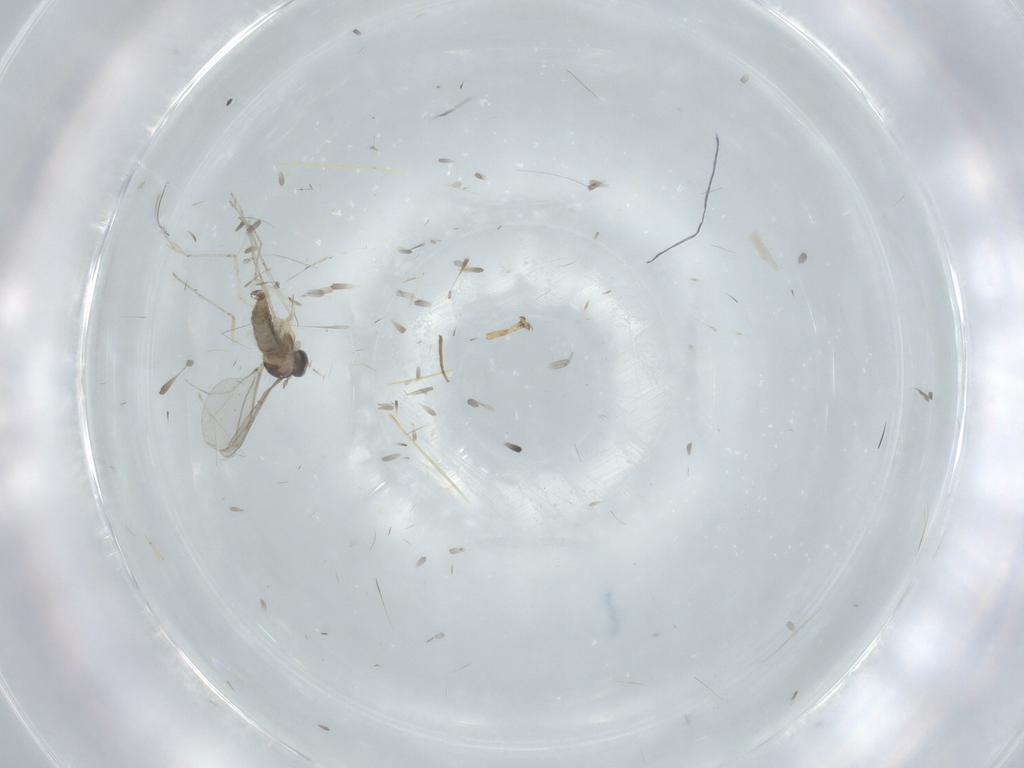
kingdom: Animalia
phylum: Arthropoda
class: Insecta
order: Diptera
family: Cecidomyiidae
